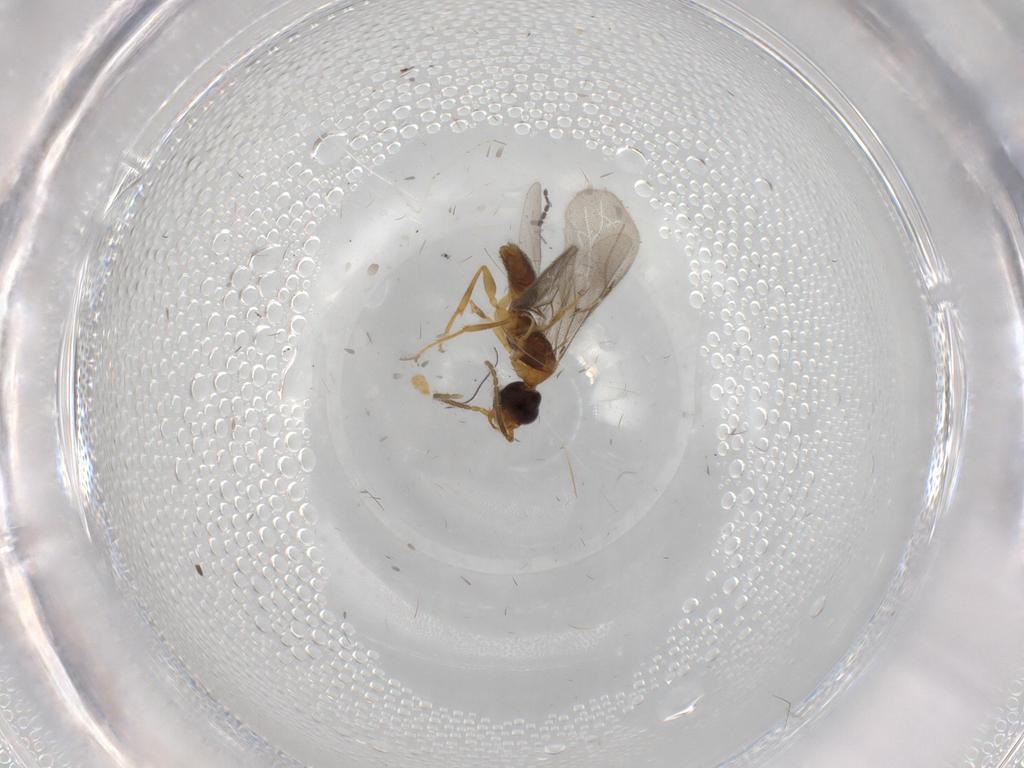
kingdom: Animalia
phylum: Arthropoda
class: Insecta
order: Hymenoptera
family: Bethylidae
